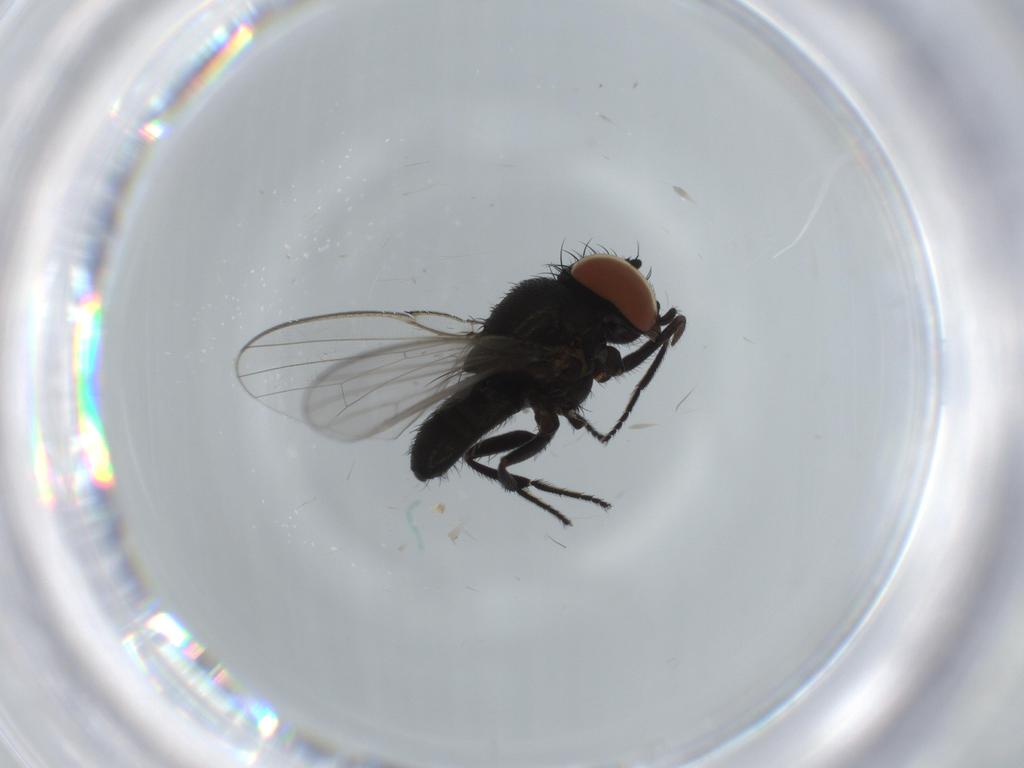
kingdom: Animalia
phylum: Arthropoda
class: Insecta
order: Diptera
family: Milichiidae
